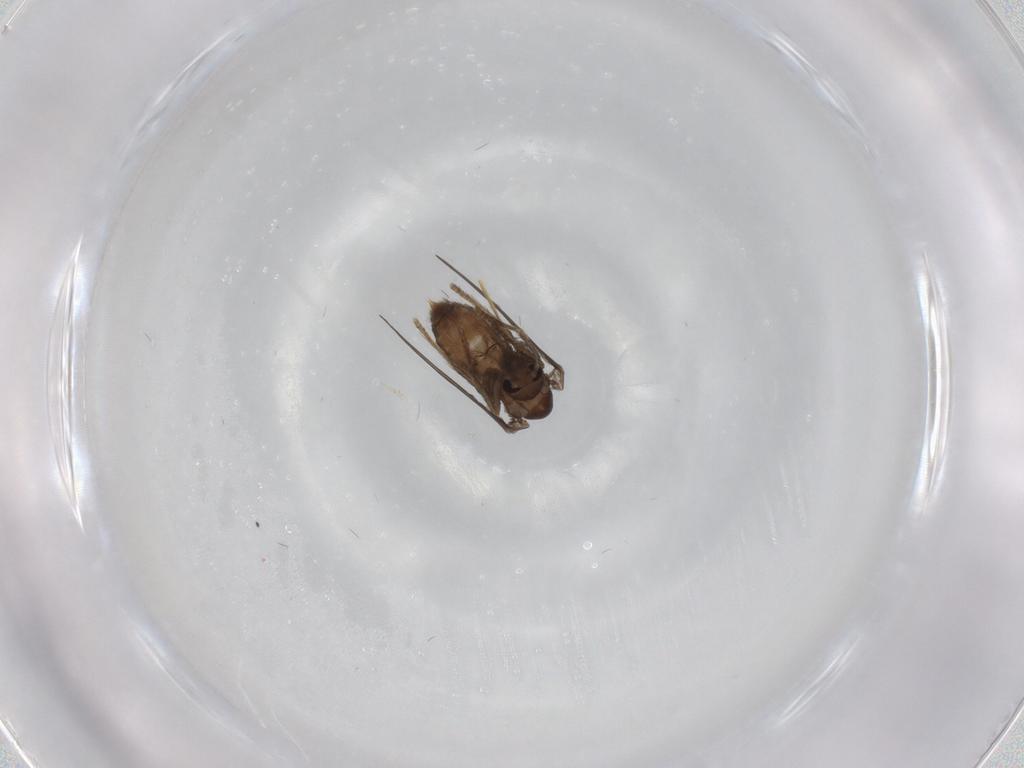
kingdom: Animalia
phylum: Arthropoda
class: Insecta
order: Diptera
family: Psychodidae
